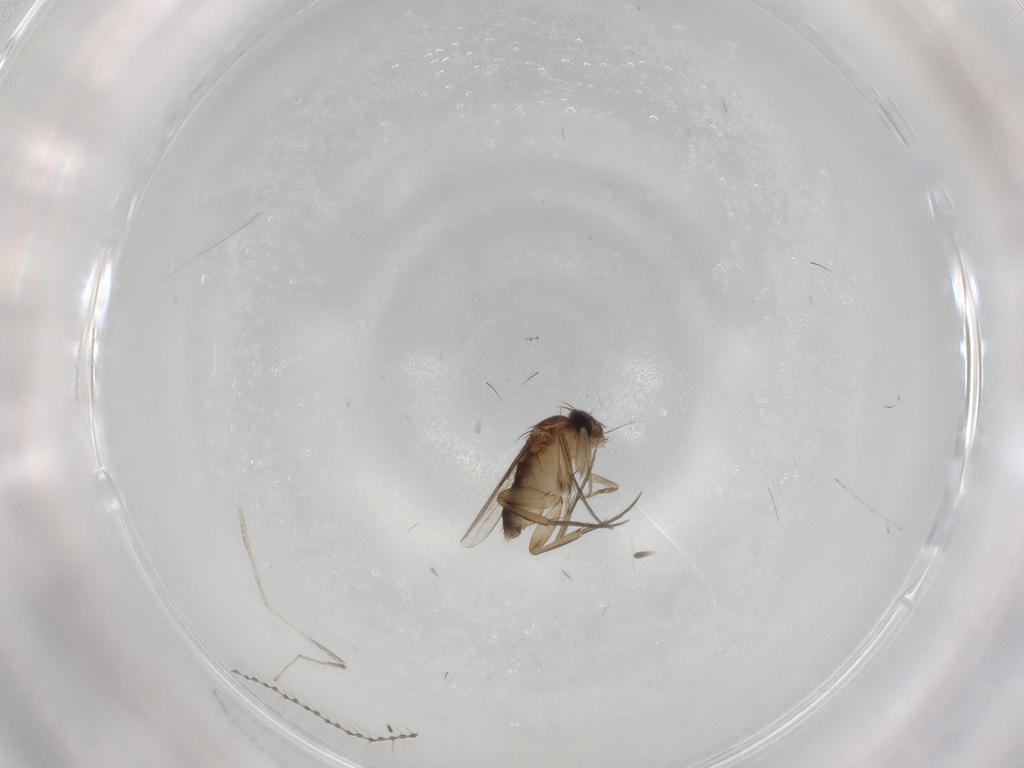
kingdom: Animalia
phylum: Arthropoda
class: Insecta
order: Diptera
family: Phoridae
